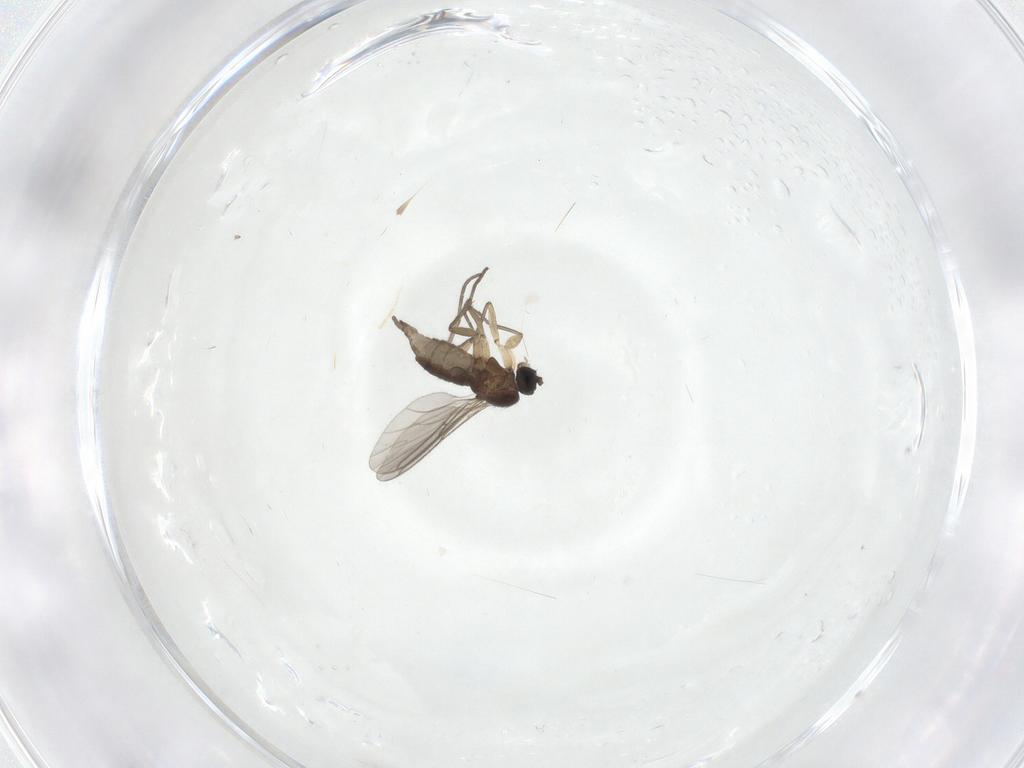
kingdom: Animalia
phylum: Arthropoda
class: Insecta
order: Diptera
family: Sciaridae
